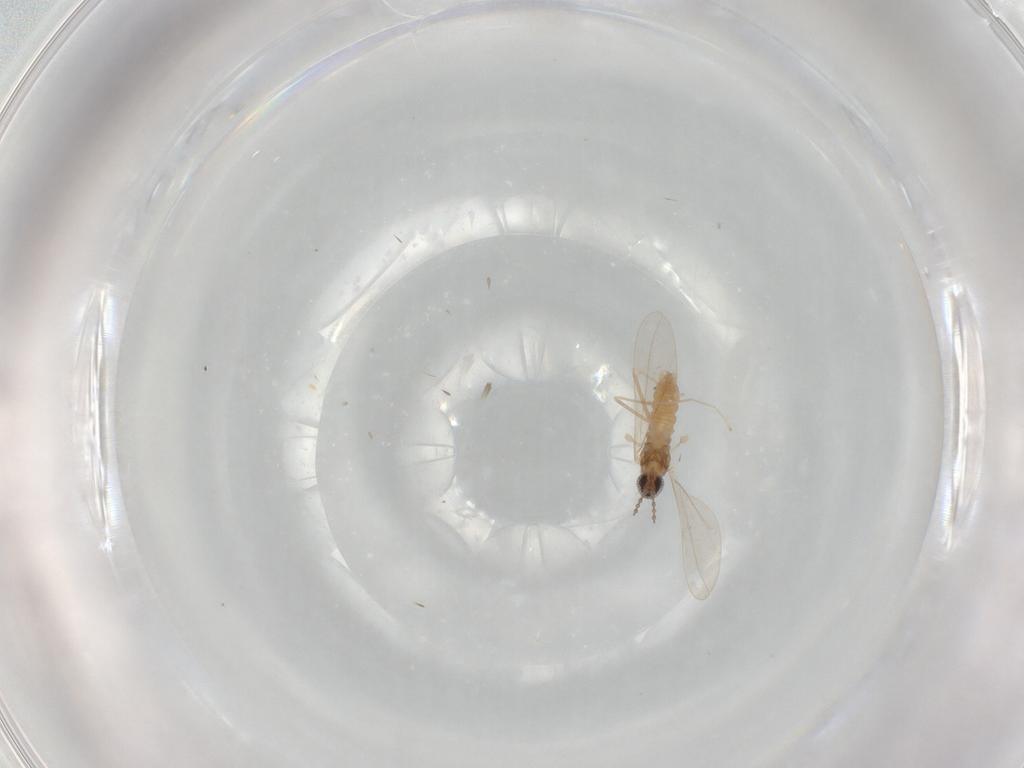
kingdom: Animalia
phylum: Arthropoda
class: Insecta
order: Diptera
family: Cecidomyiidae
